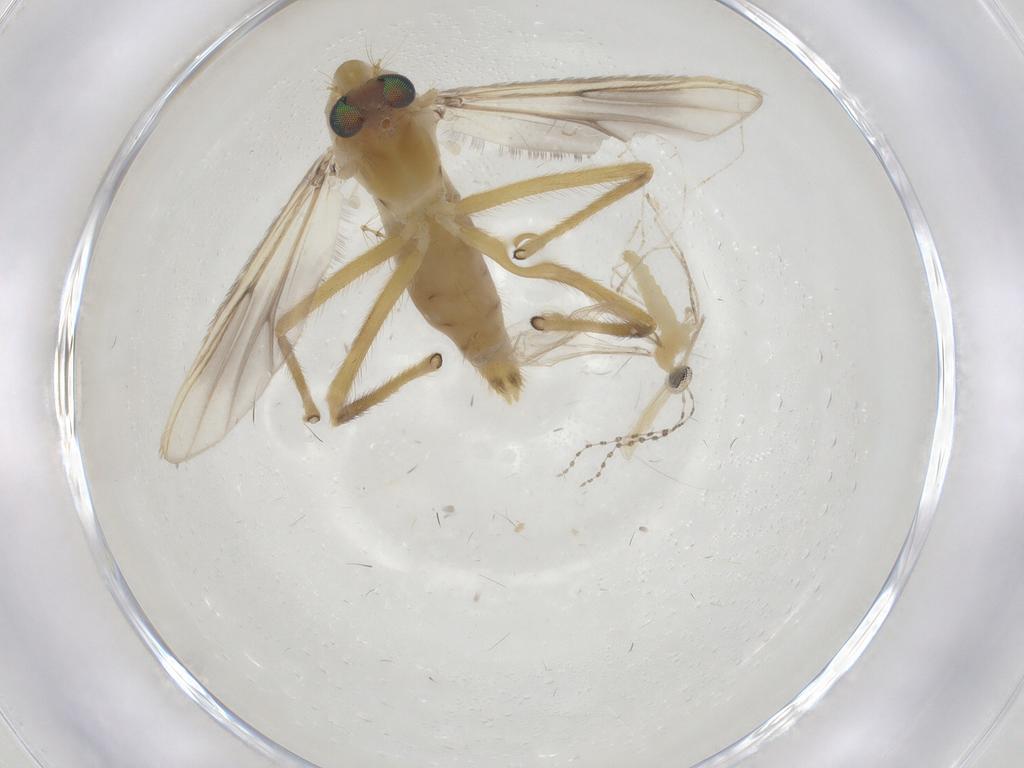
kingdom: Animalia
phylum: Arthropoda
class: Insecta
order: Diptera
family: Chironomidae
